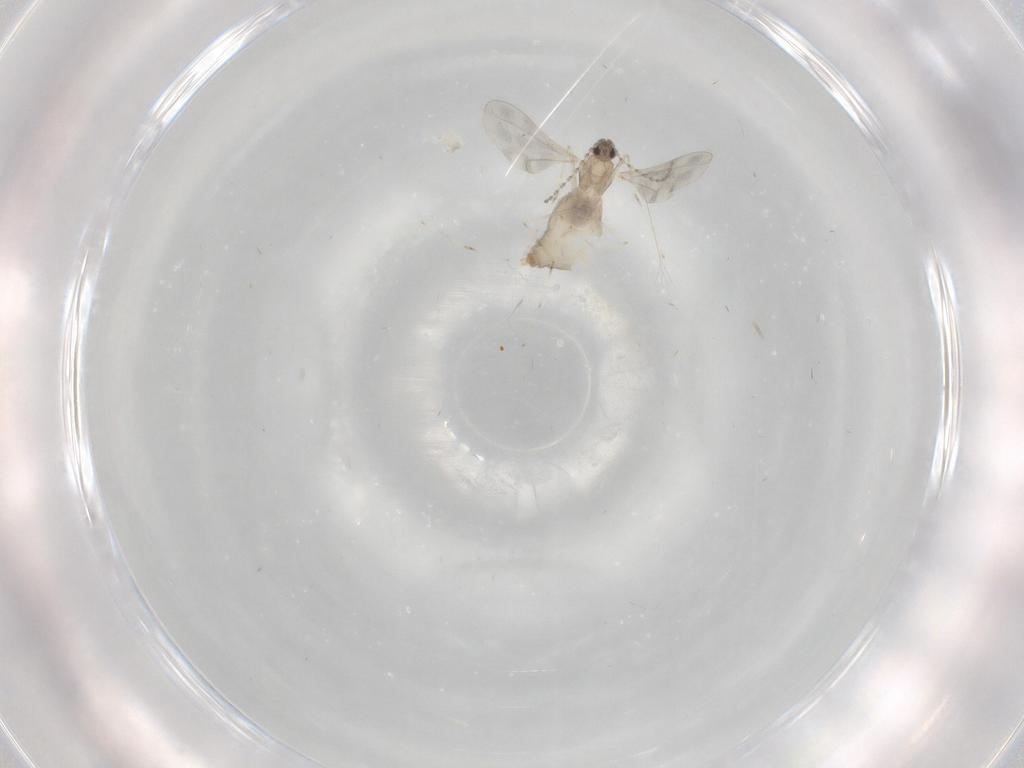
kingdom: Animalia
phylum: Arthropoda
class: Insecta
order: Diptera
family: Cecidomyiidae
